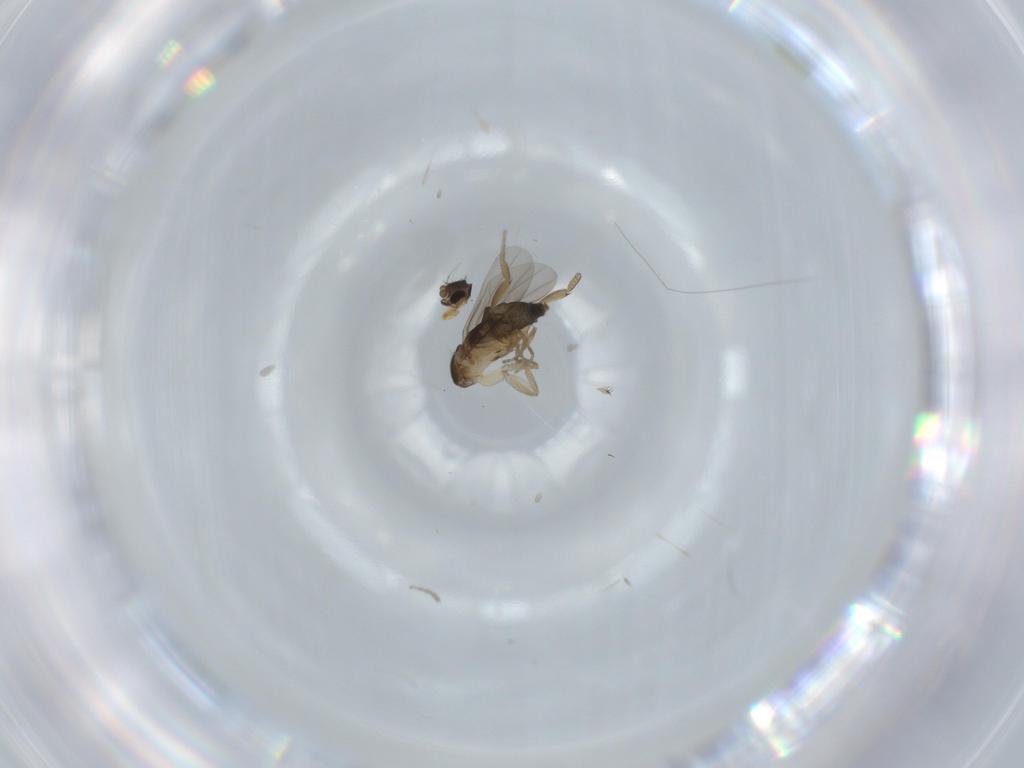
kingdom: Animalia
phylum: Arthropoda
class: Insecta
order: Diptera
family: Phoridae
